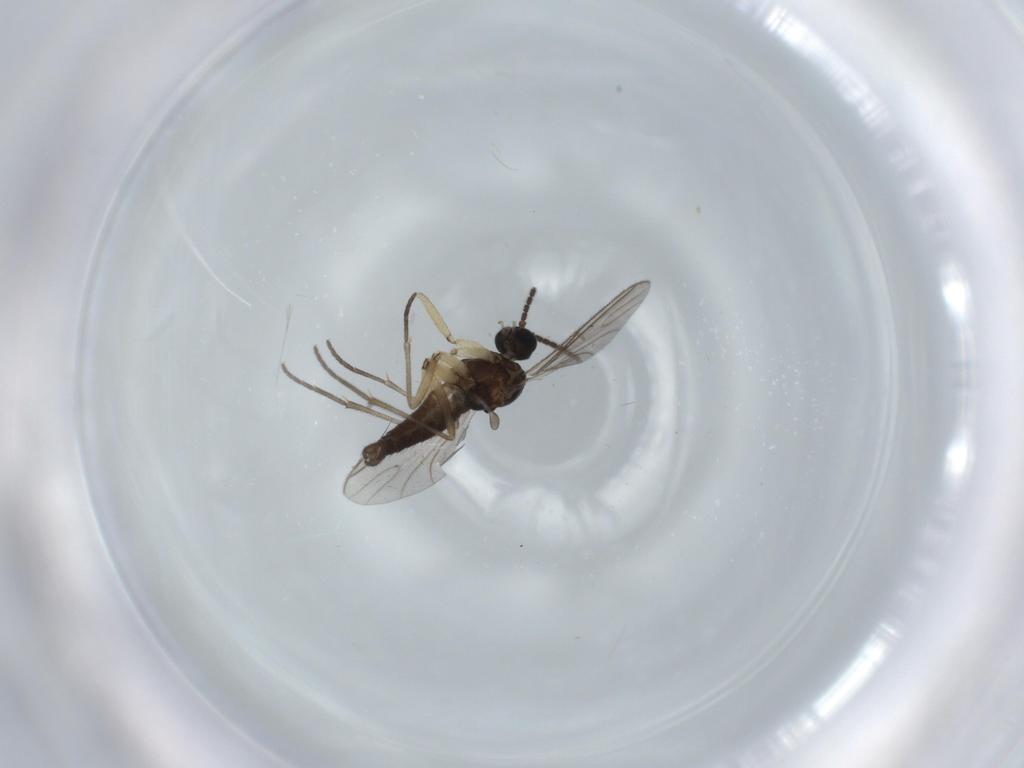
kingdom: Animalia
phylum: Arthropoda
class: Insecta
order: Diptera
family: Sciaridae
